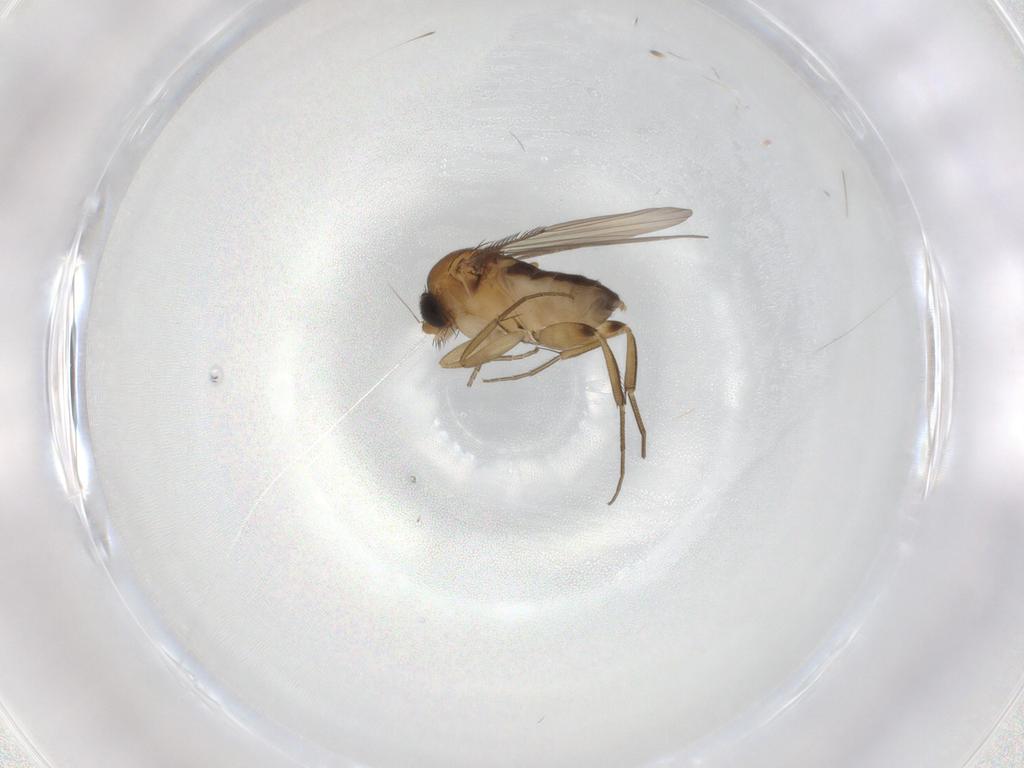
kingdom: Animalia
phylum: Arthropoda
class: Insecta
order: Diptera
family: Phoridae
